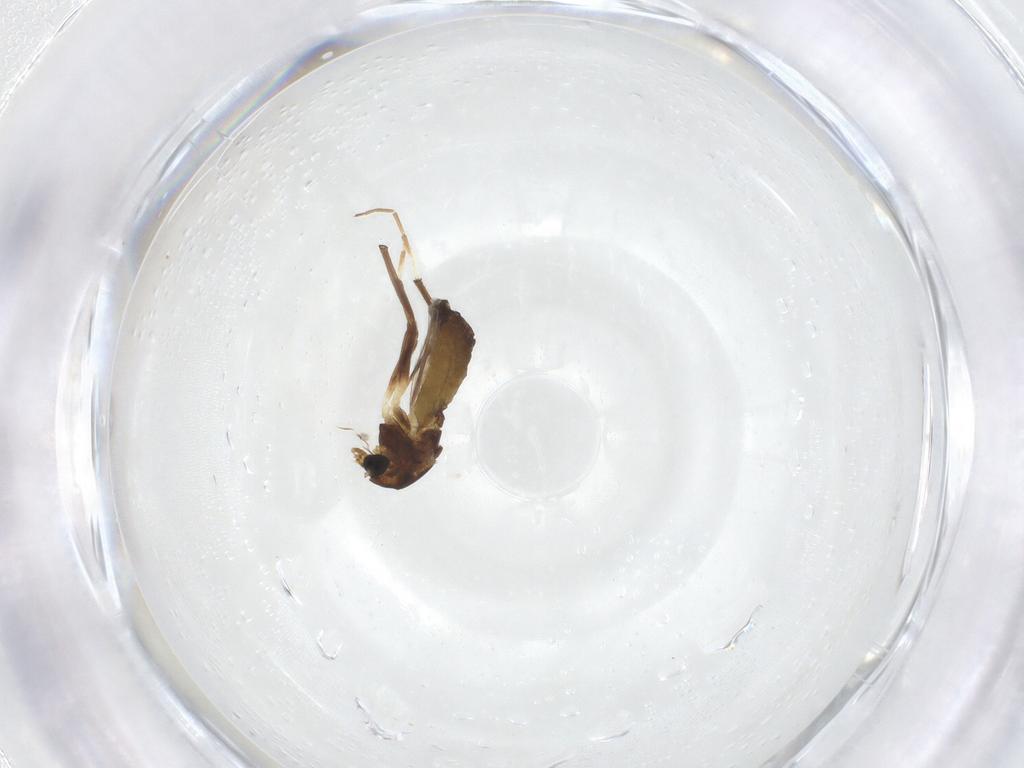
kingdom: Animalia
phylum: Arthropoda
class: Insecta
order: Diptera
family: Chironomidae
